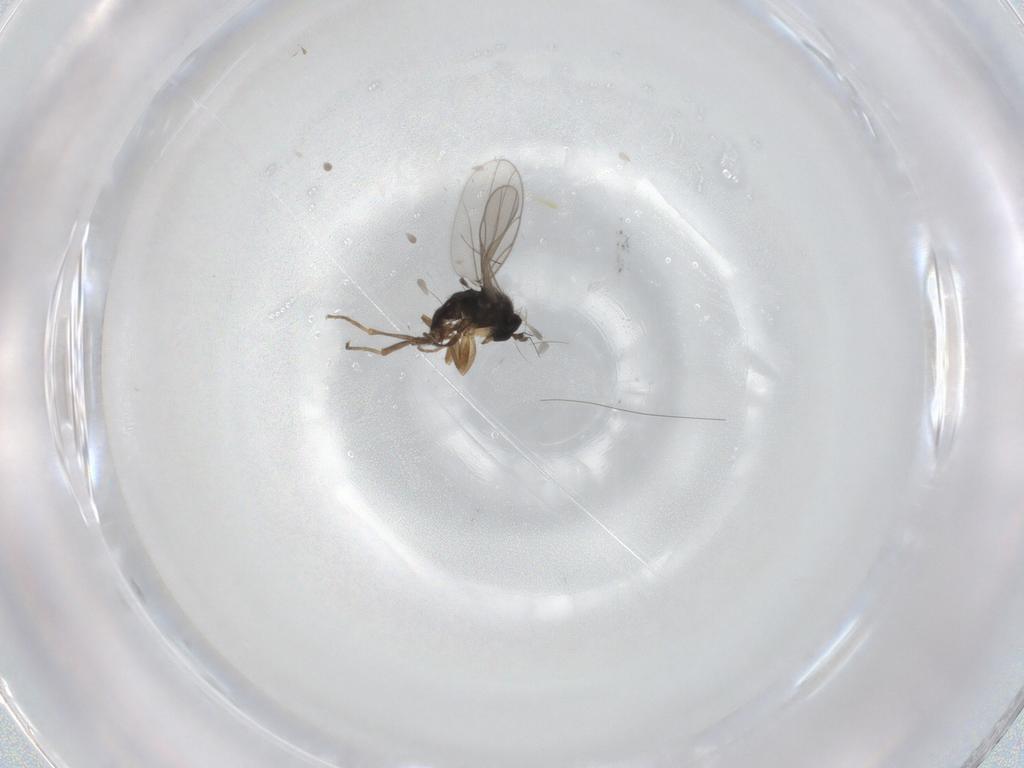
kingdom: Animalia
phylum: Arthropoda
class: Insecta
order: Diptera
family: Hybotidae
